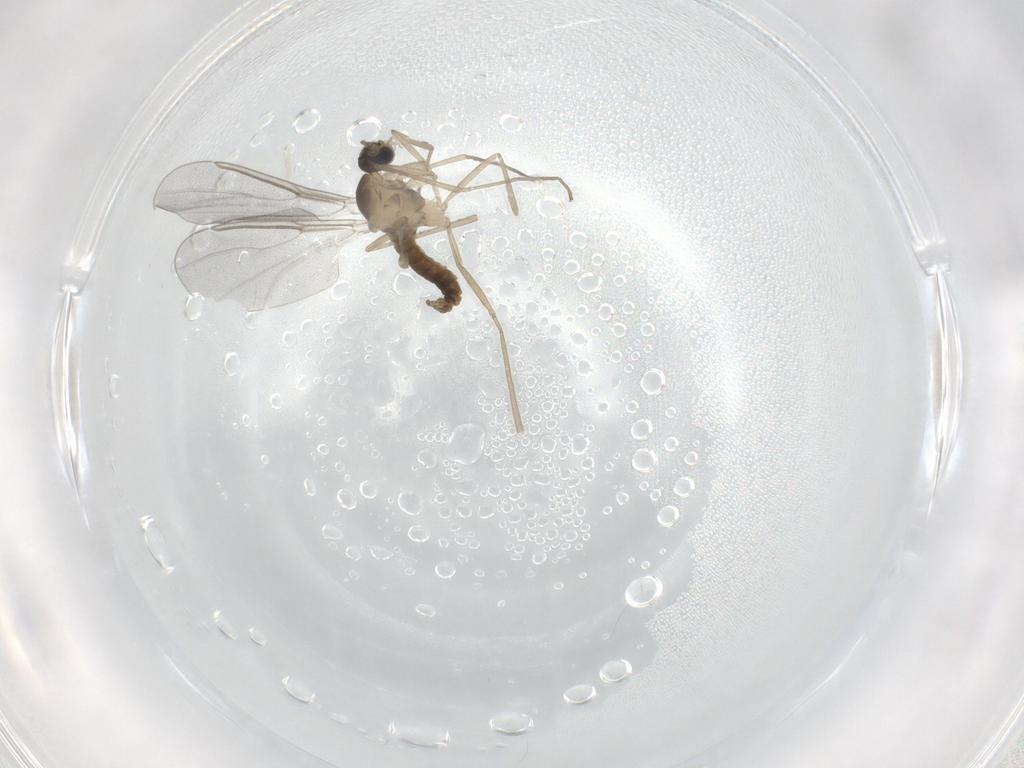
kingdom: Animalia
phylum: Arthropoda
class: Insecta
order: Diptera
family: Cecidomyiidae
